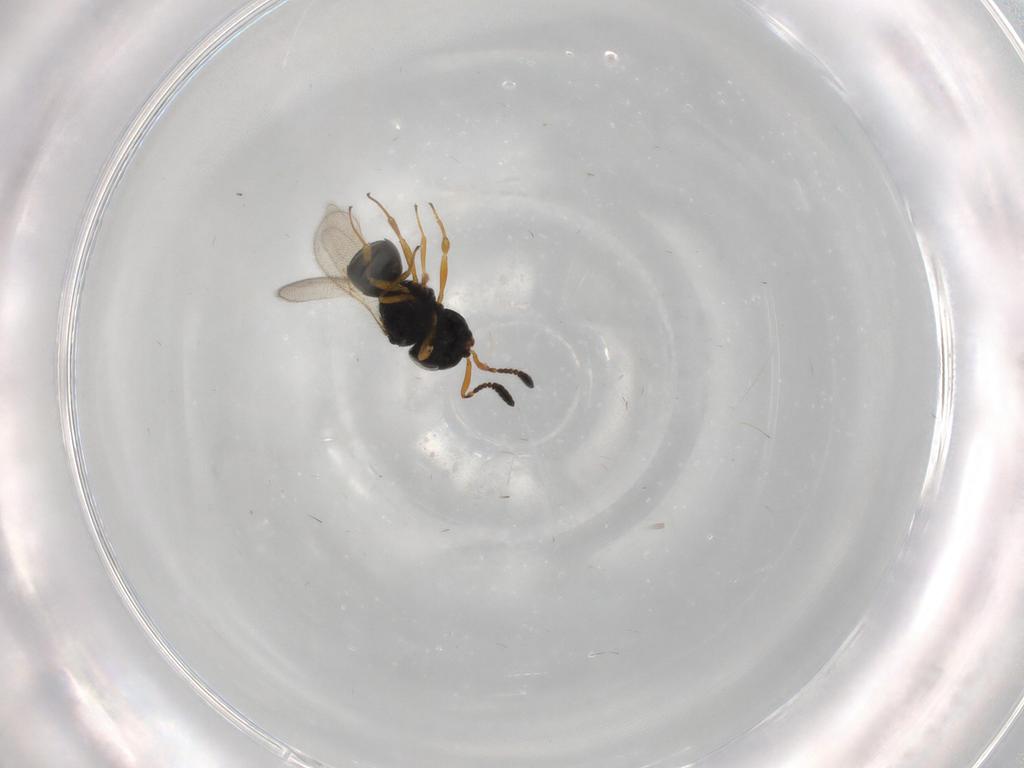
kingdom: Animalia
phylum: Arthropoda
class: Insecta
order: Hymenoptera
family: Scelionidae
